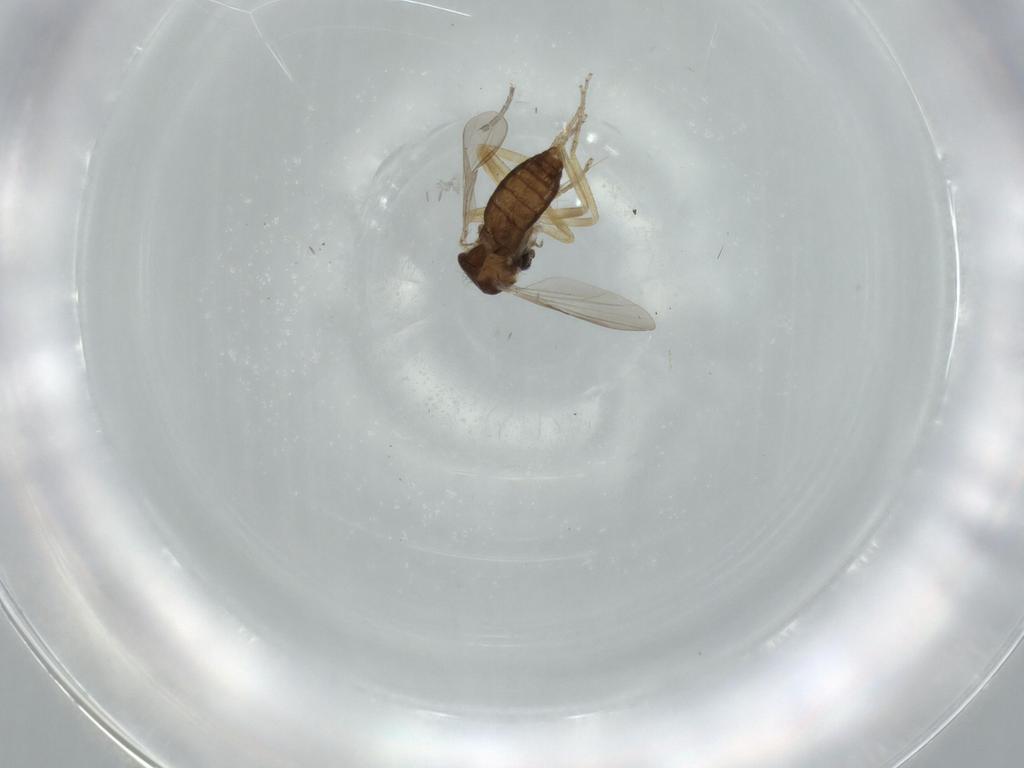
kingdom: Animalia
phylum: Arthropoda
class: Insecta
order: Diptera
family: Ceratopogonidae
